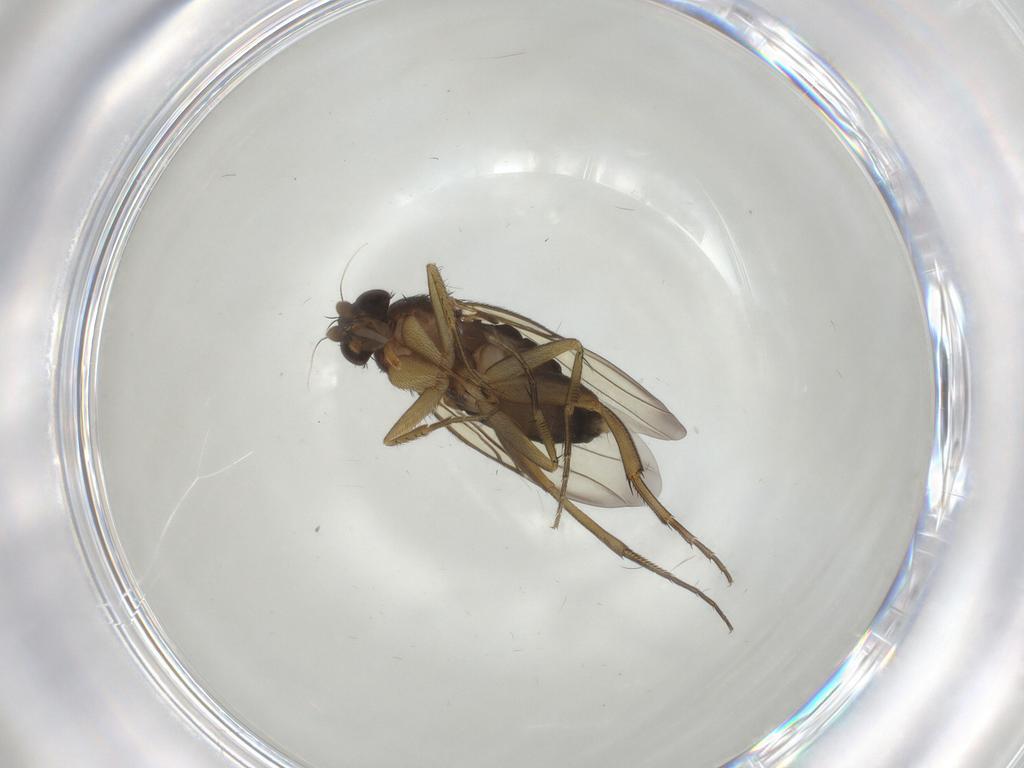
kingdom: Animalia
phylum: Arthropoda
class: Insecta
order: Diptera
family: Phoridae
